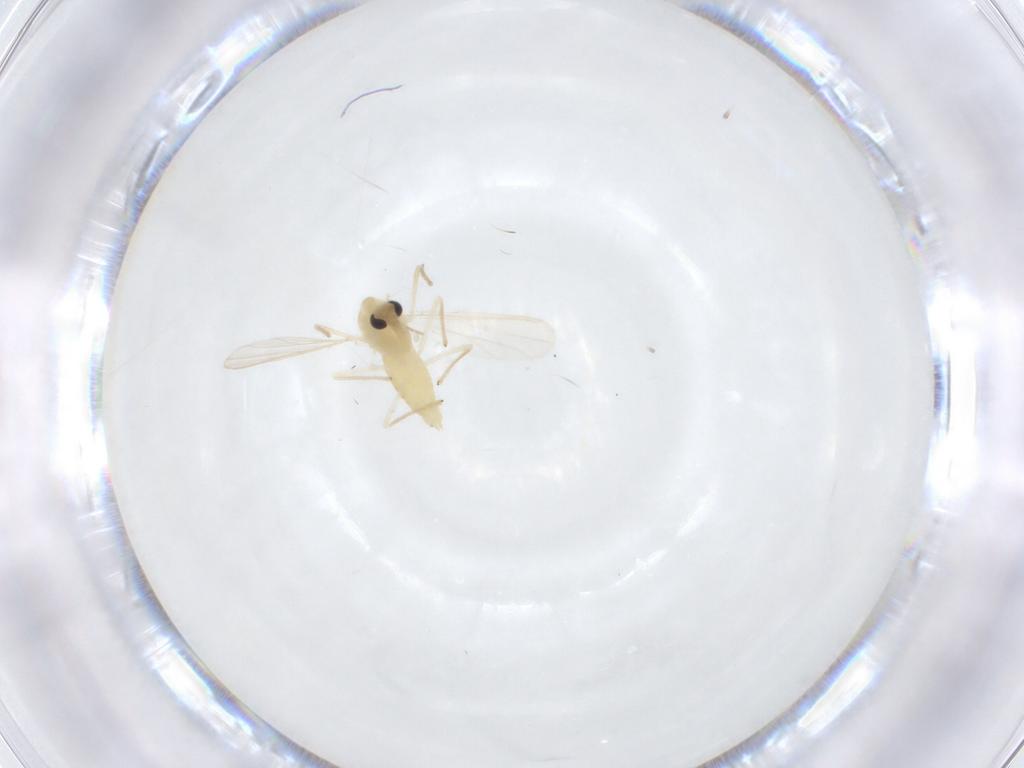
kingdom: Animalia
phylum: Arthropoda
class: Insecta
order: Diptera
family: Chironomidae
